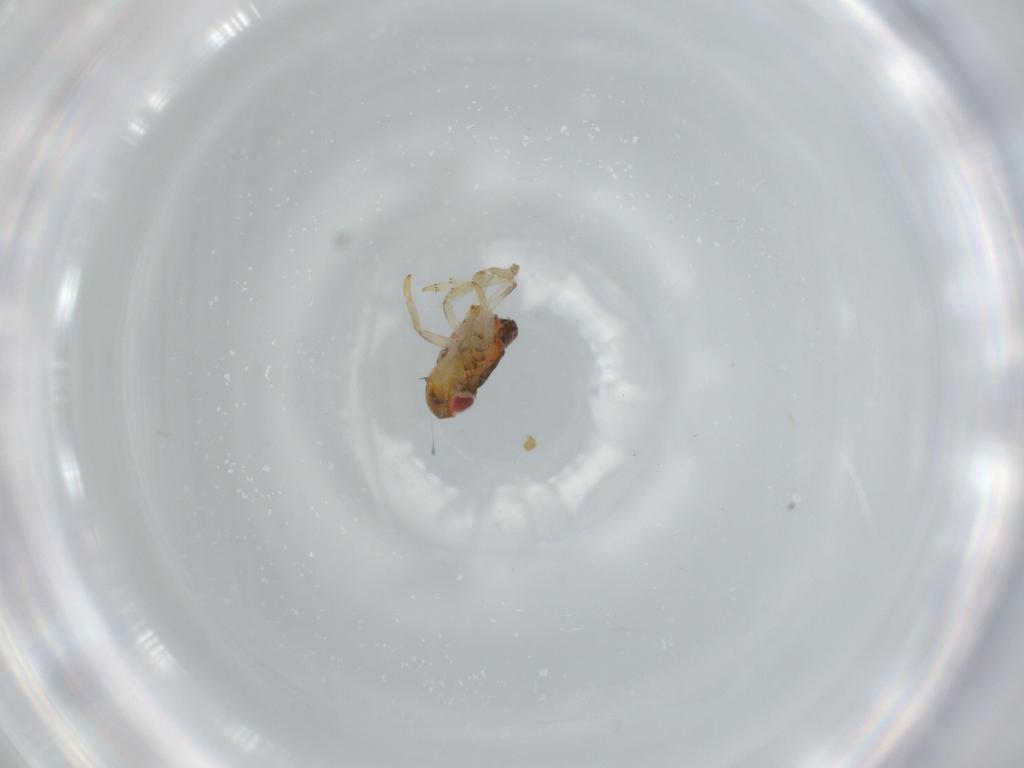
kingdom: Animalia
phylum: Arthropoda
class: Insecta
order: Hemiptera
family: Issidae
